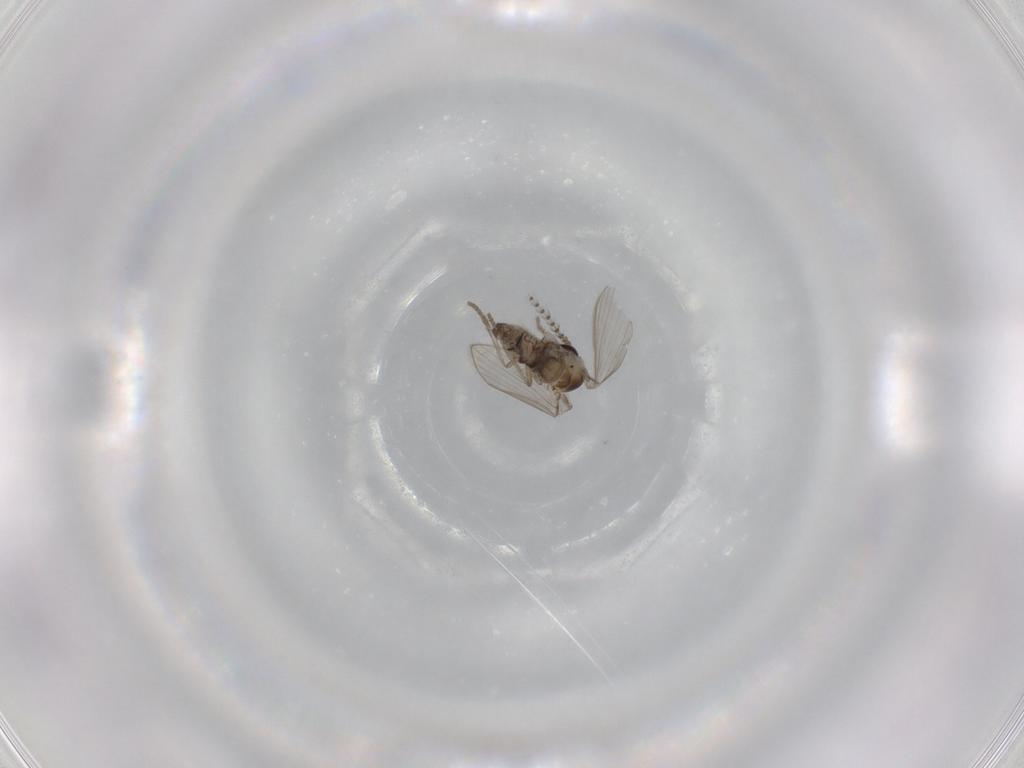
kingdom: Animalia
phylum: Arthropoda
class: Insecta
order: Diptera
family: Psychodidae
